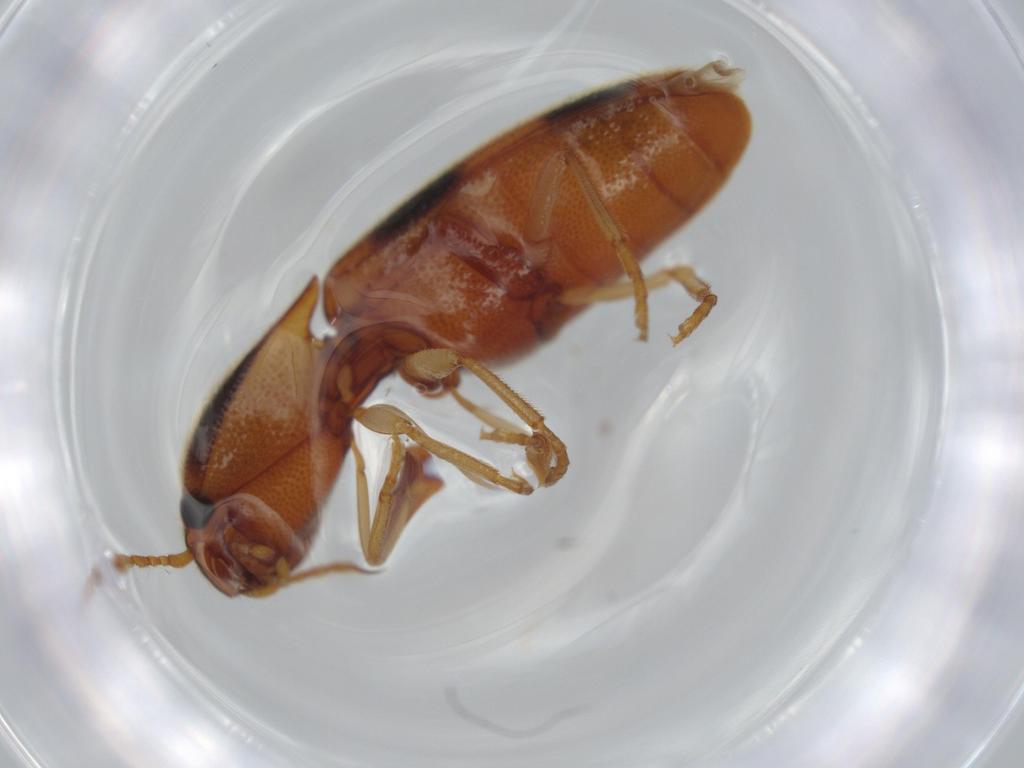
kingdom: Animalia
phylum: Arthropoda
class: Insecta
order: Coleoptera
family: Elateridae
